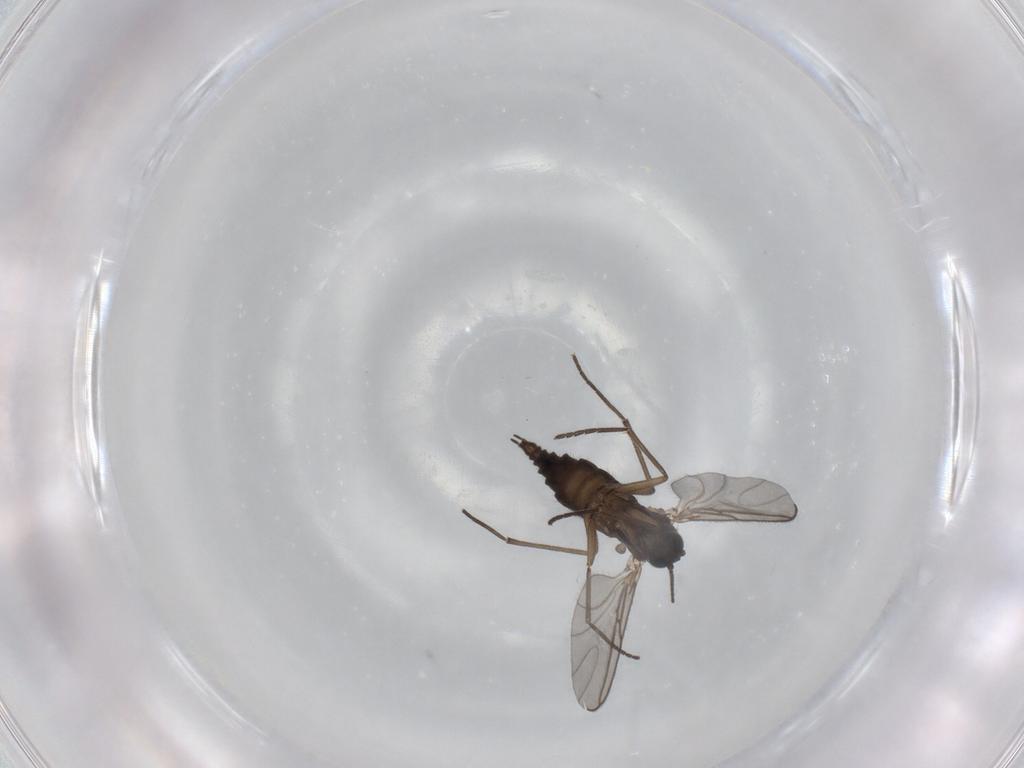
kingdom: Animalia
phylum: Arthropoda
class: Insecta
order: Diptera
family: Sciaridae
